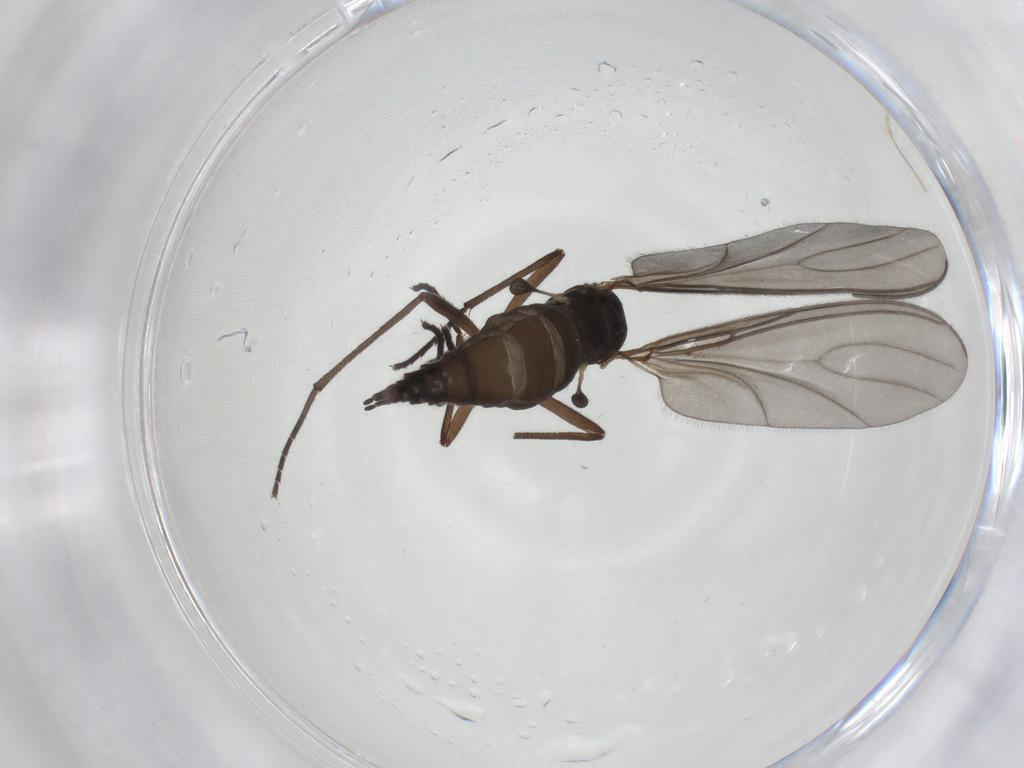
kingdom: Animalia
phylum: Arthropoda
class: Insecta
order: Diptera
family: Sciaridae
